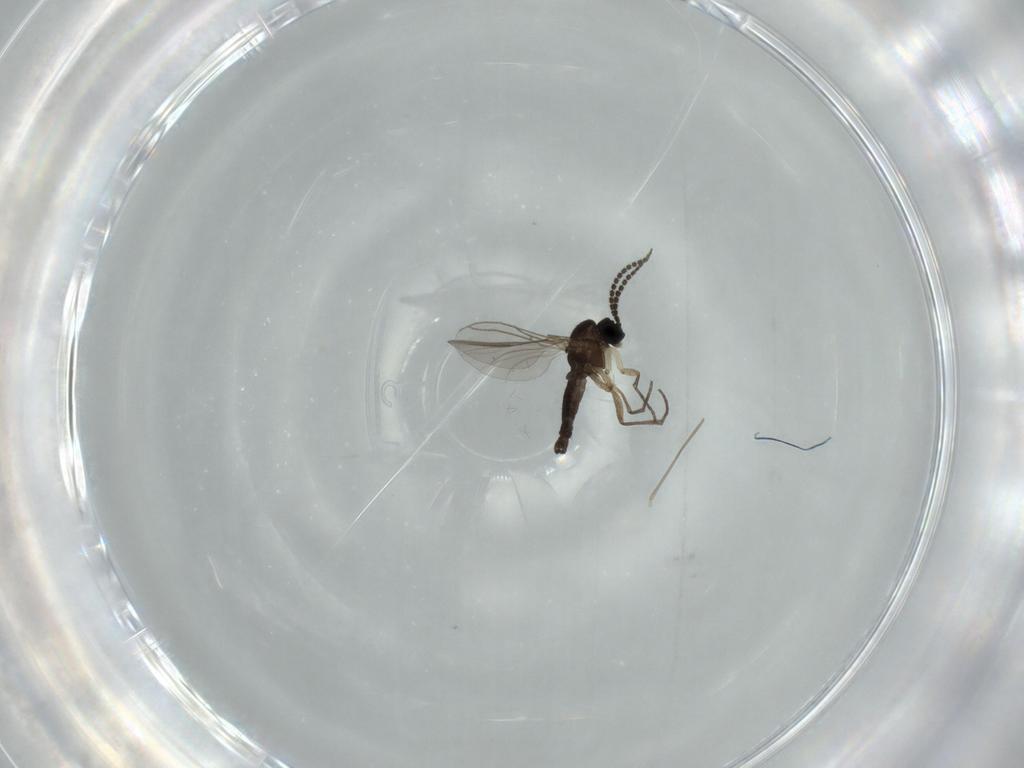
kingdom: Animalia
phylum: Arthropoda
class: Insecta
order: Diptera
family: Sciaridae
